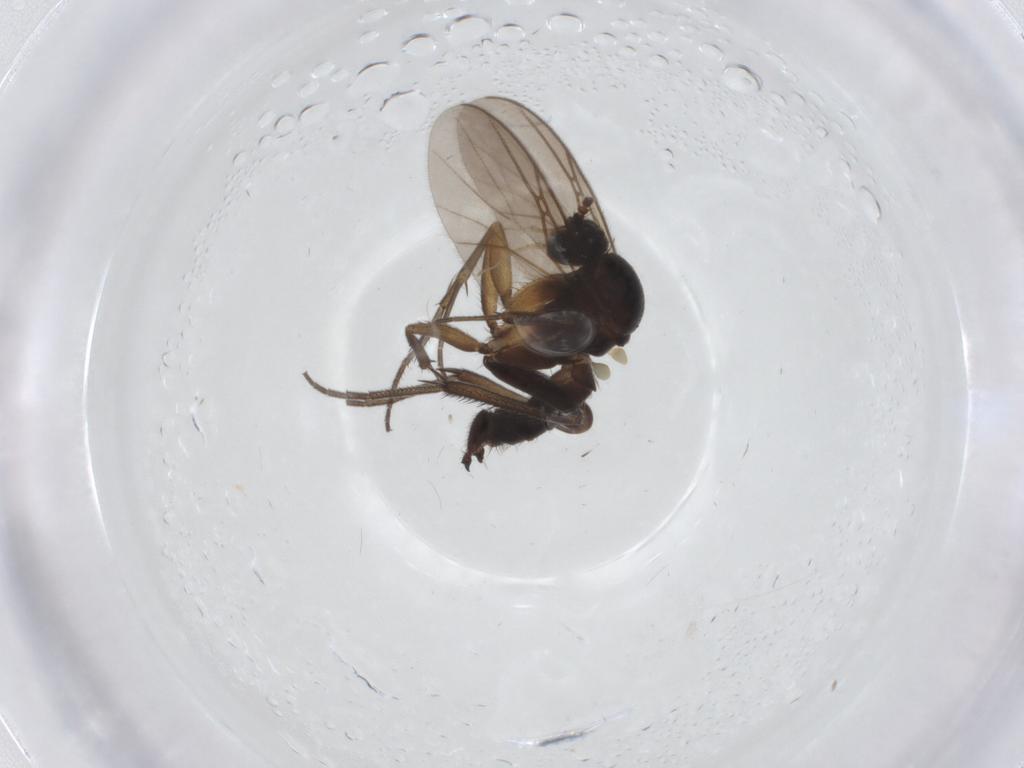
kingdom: Animalia
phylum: Arthropoda
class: Insecta
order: Diptera
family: Mycetophilidae
